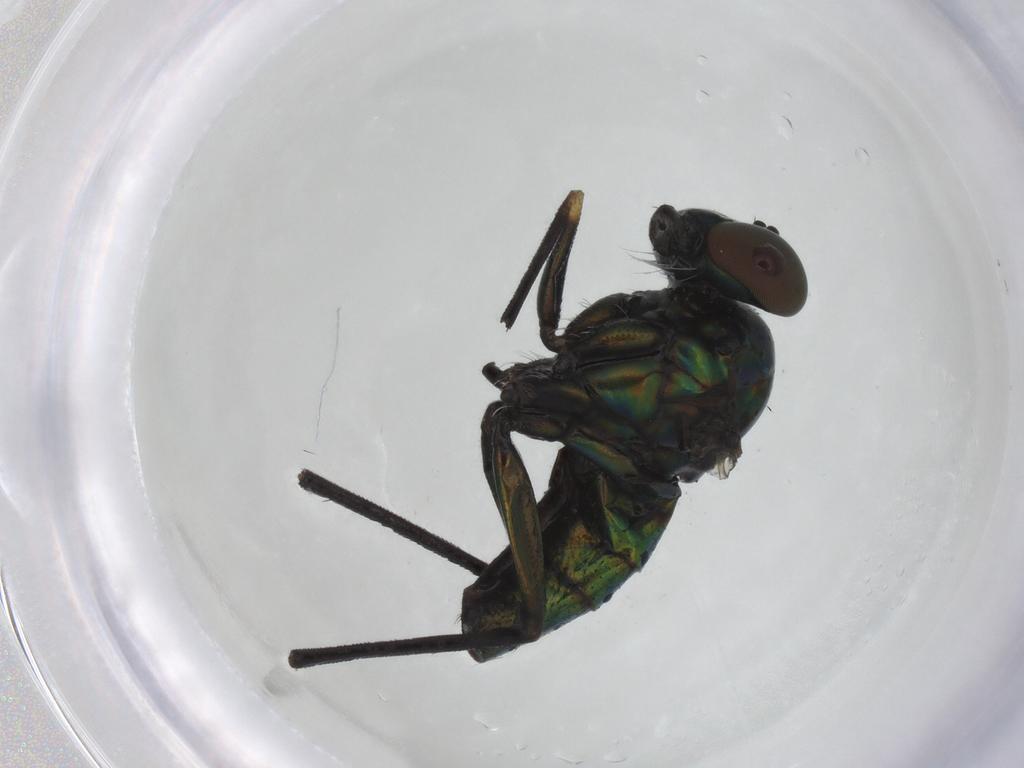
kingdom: Animalia
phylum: Arthropoda
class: Insecta
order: Diptera
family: Dolichopodidae
